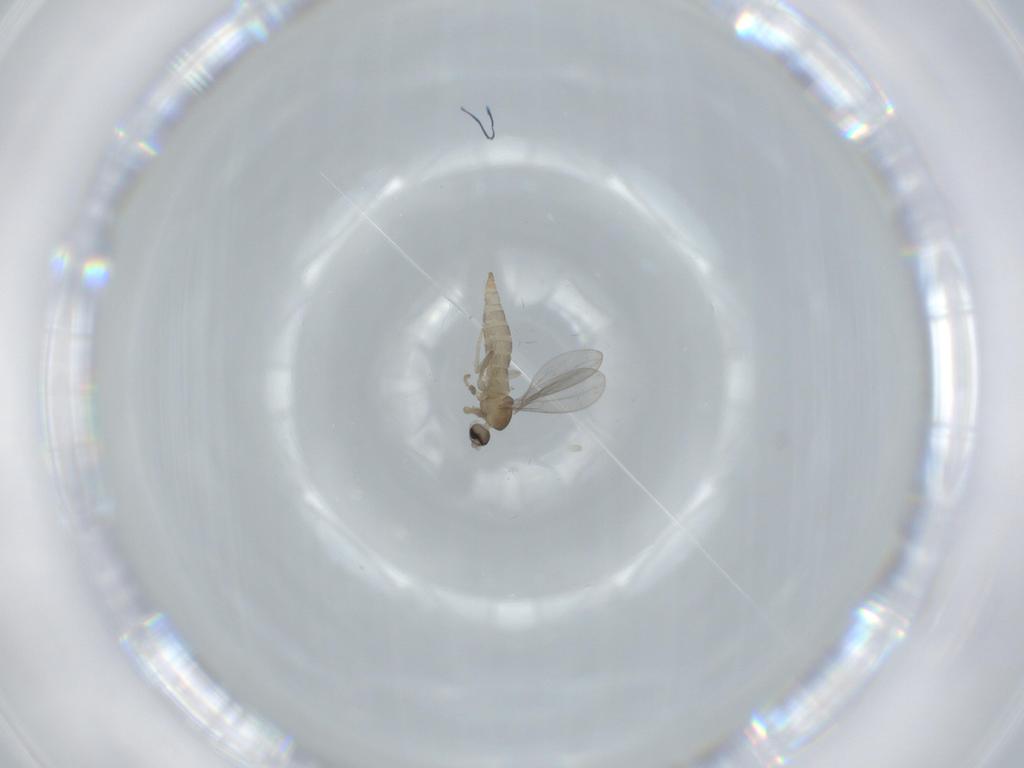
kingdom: Animalia
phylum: Arthropoda
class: Insecta
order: Diptera
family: Cecidomyiidae
